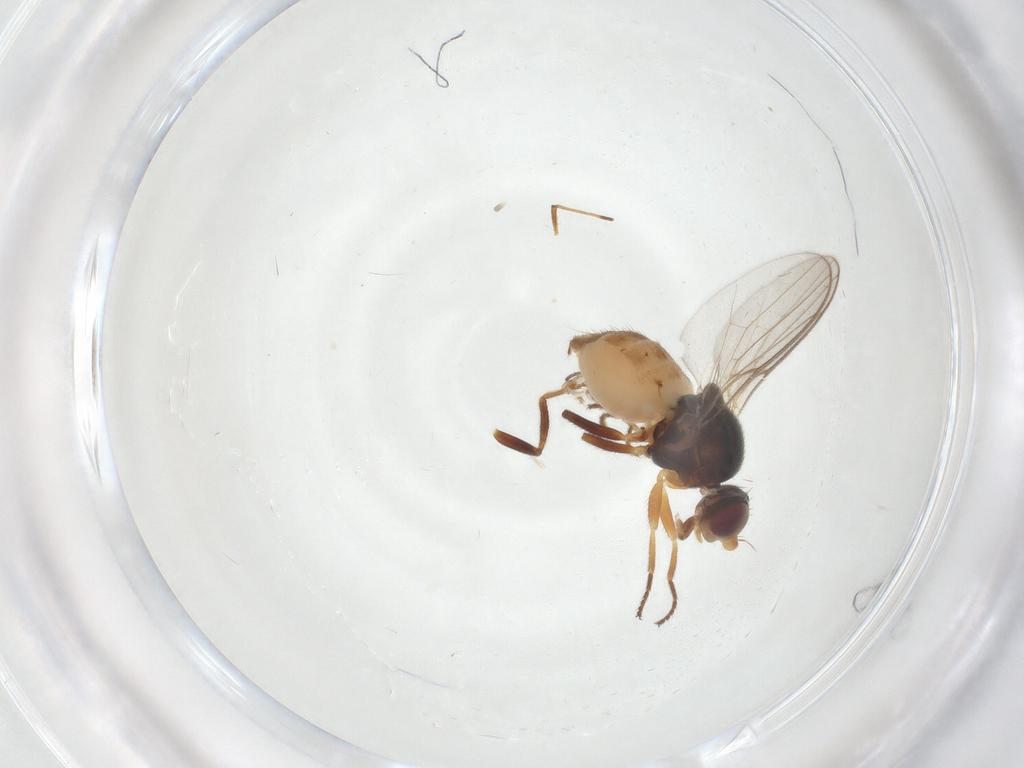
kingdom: Animalia
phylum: Arthropoda
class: Insecta
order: Diptera
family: Chloropidae
